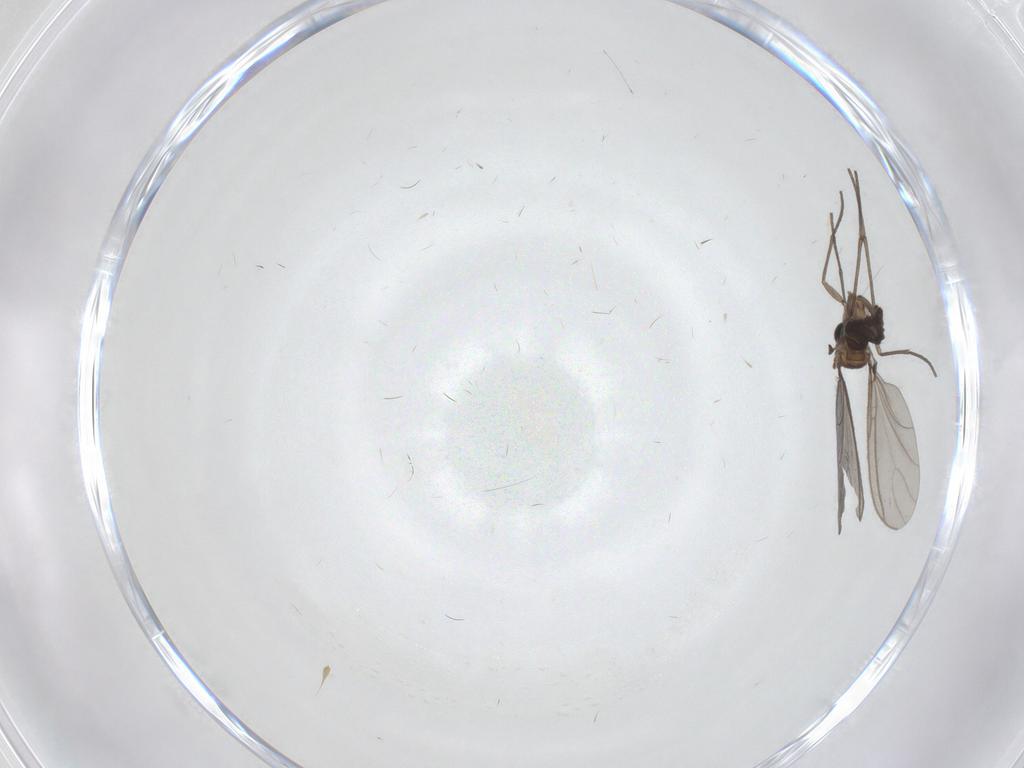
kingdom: Animalia
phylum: Arthropoda
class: Insecta
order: Diptera
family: Sciaridae
